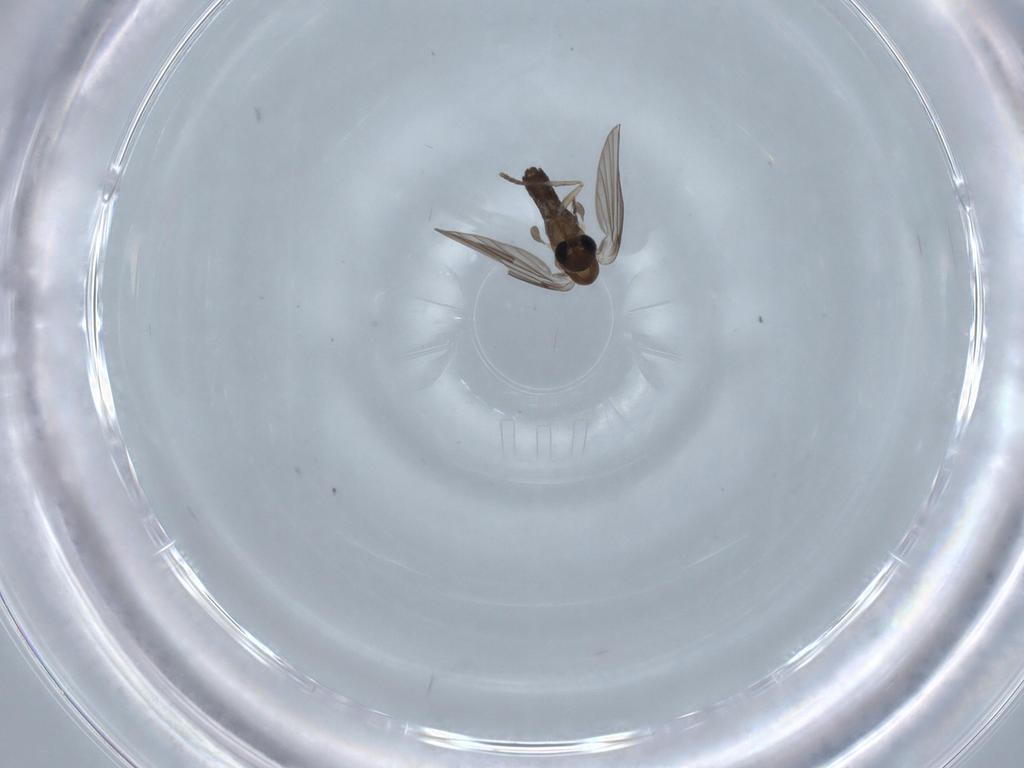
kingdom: Animalia
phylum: Arthropoda
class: Insecta
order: Diptera
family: Psychodidae
